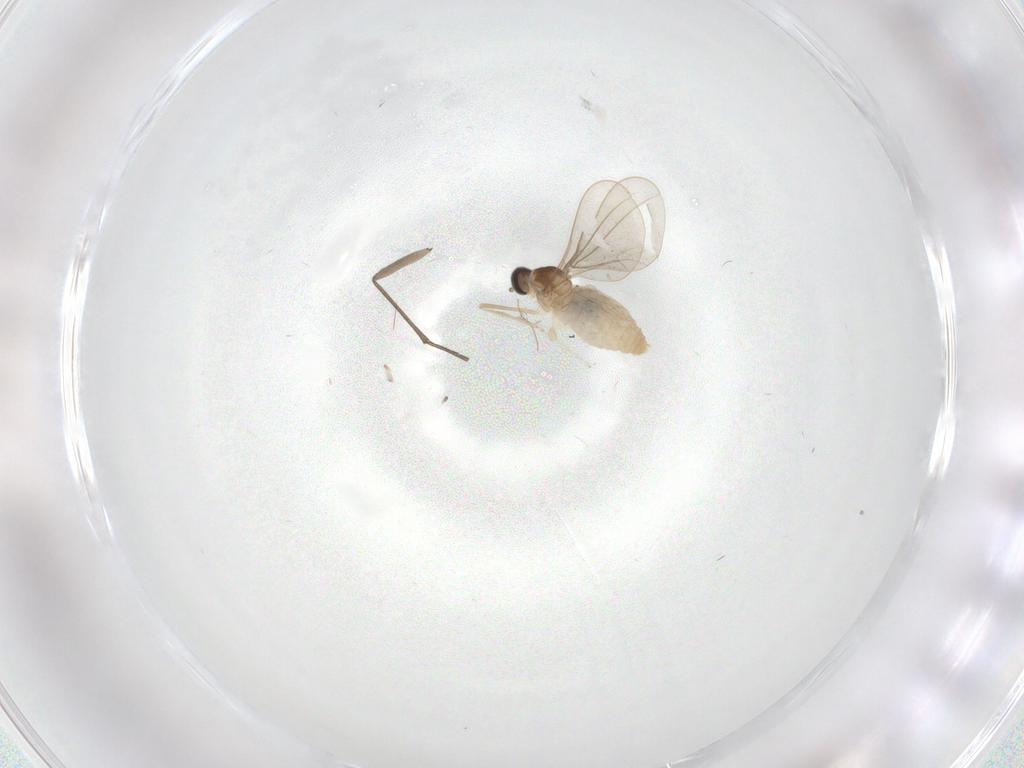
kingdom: Animalia
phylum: Arthropoda
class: Insecta
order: Diptera
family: Cecidomyiidae
